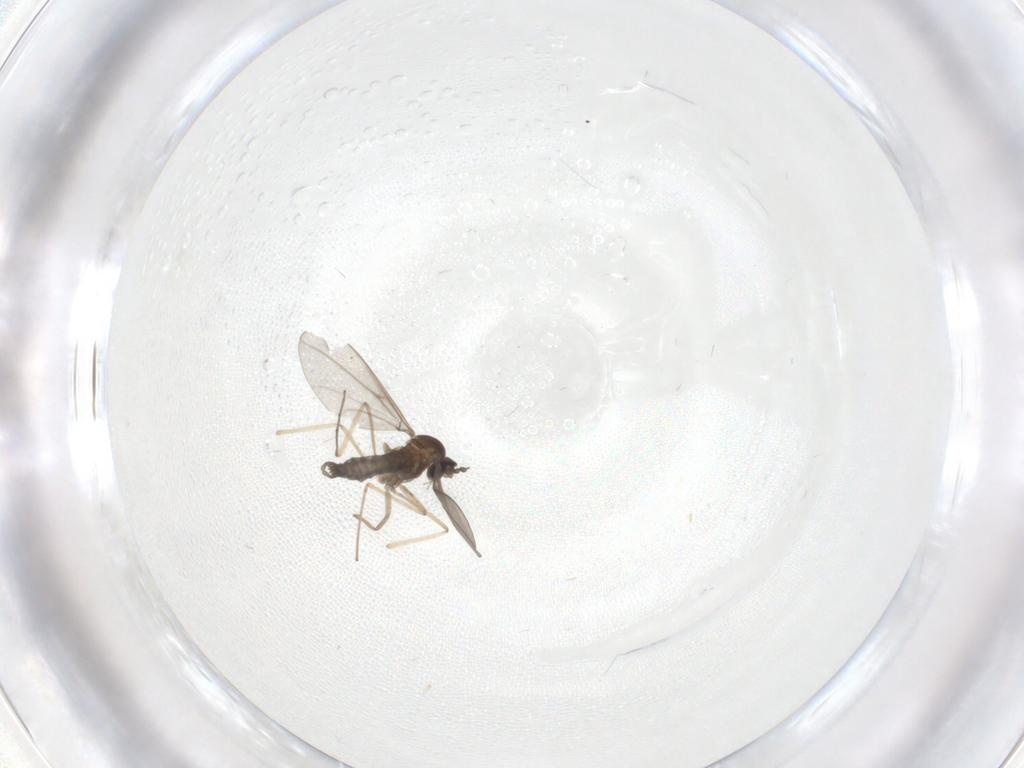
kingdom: Animalia
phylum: Arthropoda
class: Insecta
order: Diptera
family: Cecidomyiidae
